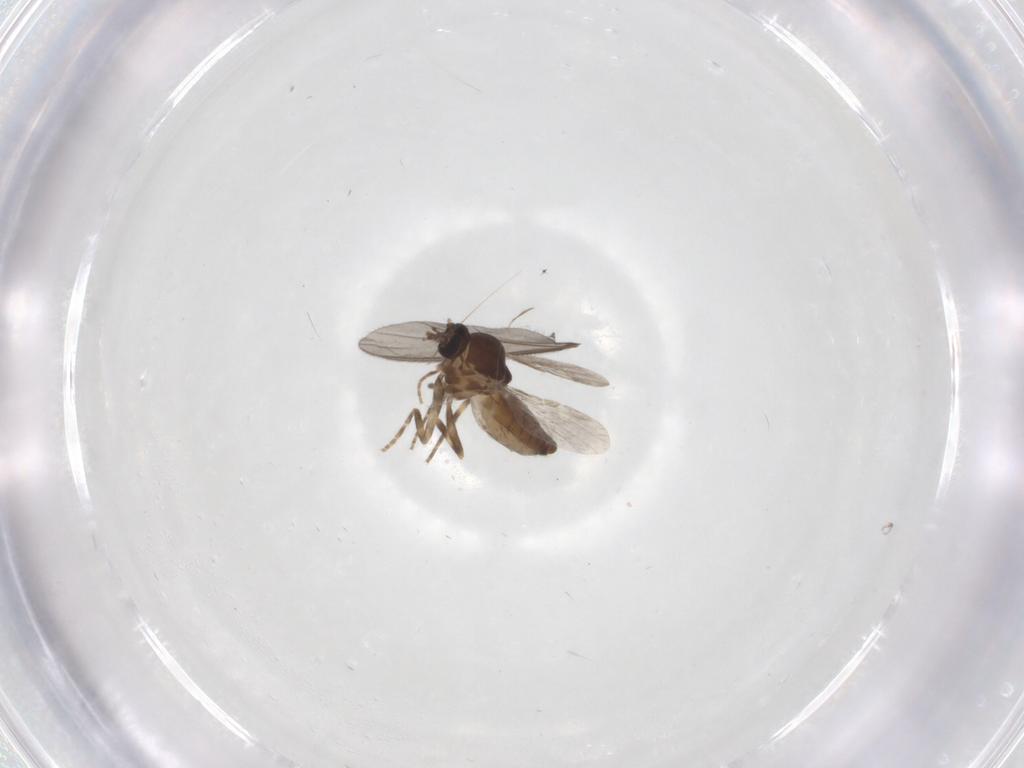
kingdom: Animalia
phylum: Arthropoda
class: Insecta
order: Diptera
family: Sciaridae
